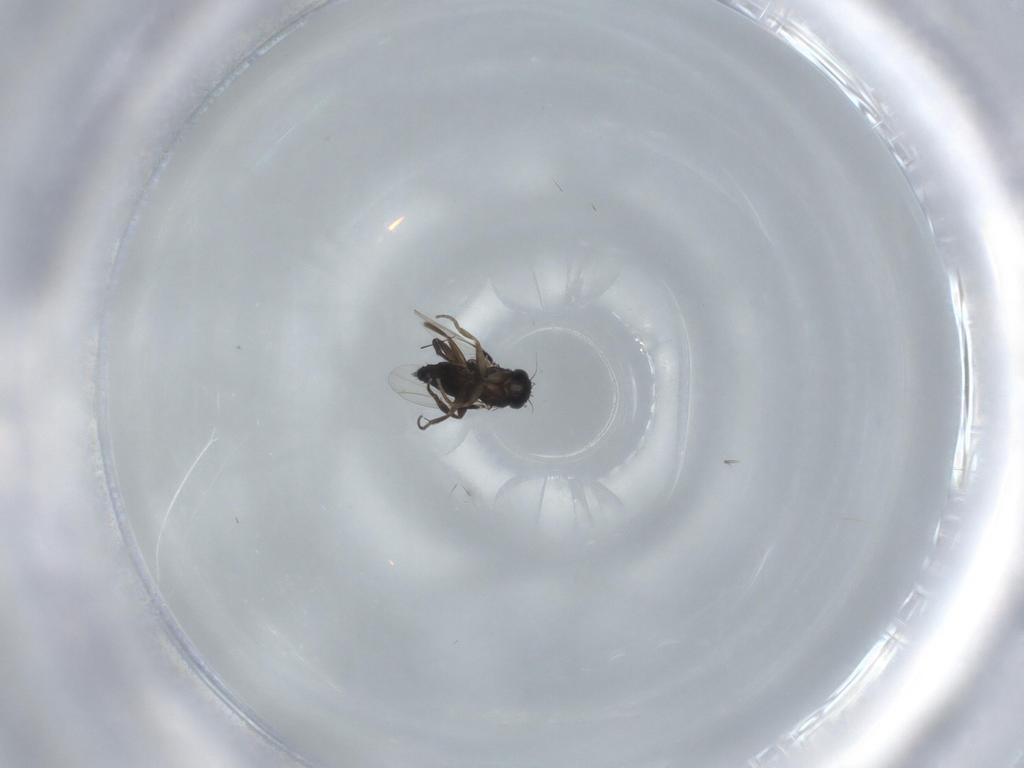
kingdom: Animalia
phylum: Arthropoda
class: Insecta
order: Diptera
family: Phoridae
